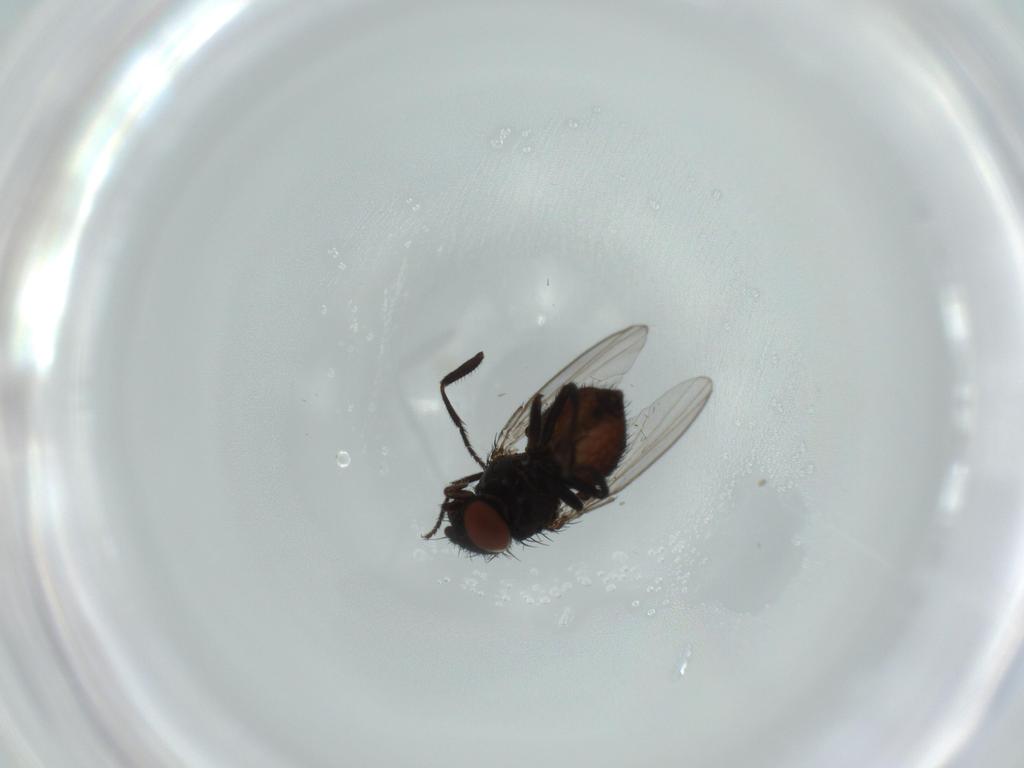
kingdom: Animalia
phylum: Arthropoda
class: Insecta
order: Diptera
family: Milichiidae
